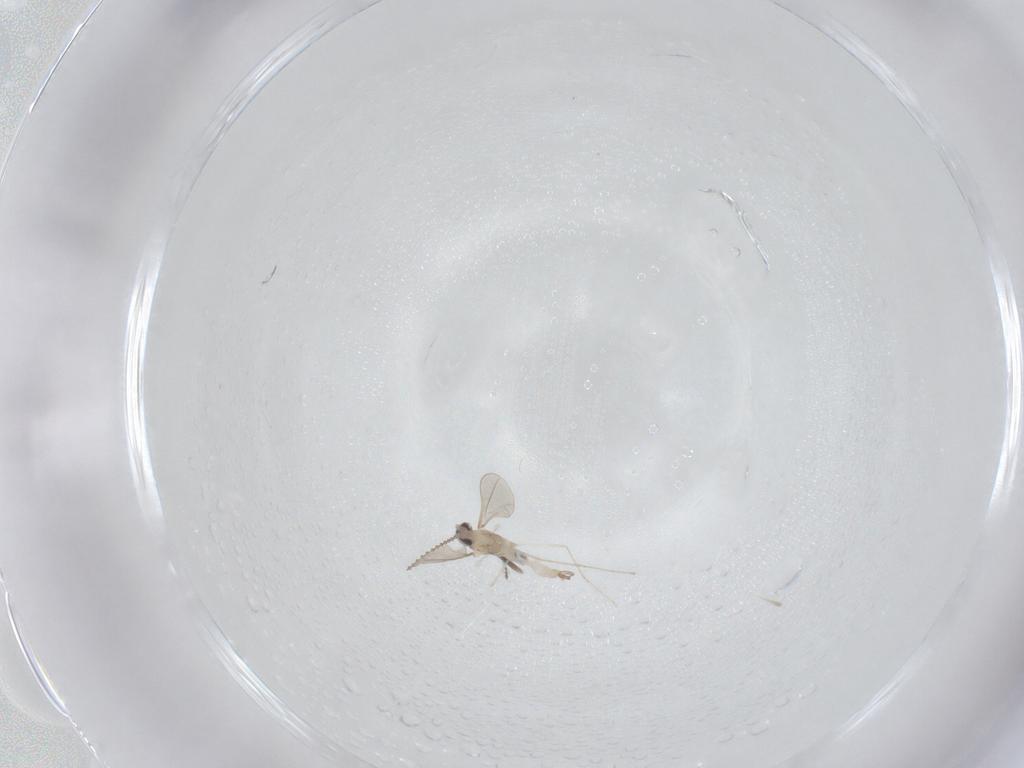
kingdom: Animalia
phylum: Arthropoda
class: Insecta
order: Diptera
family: Ceratopogonidae
